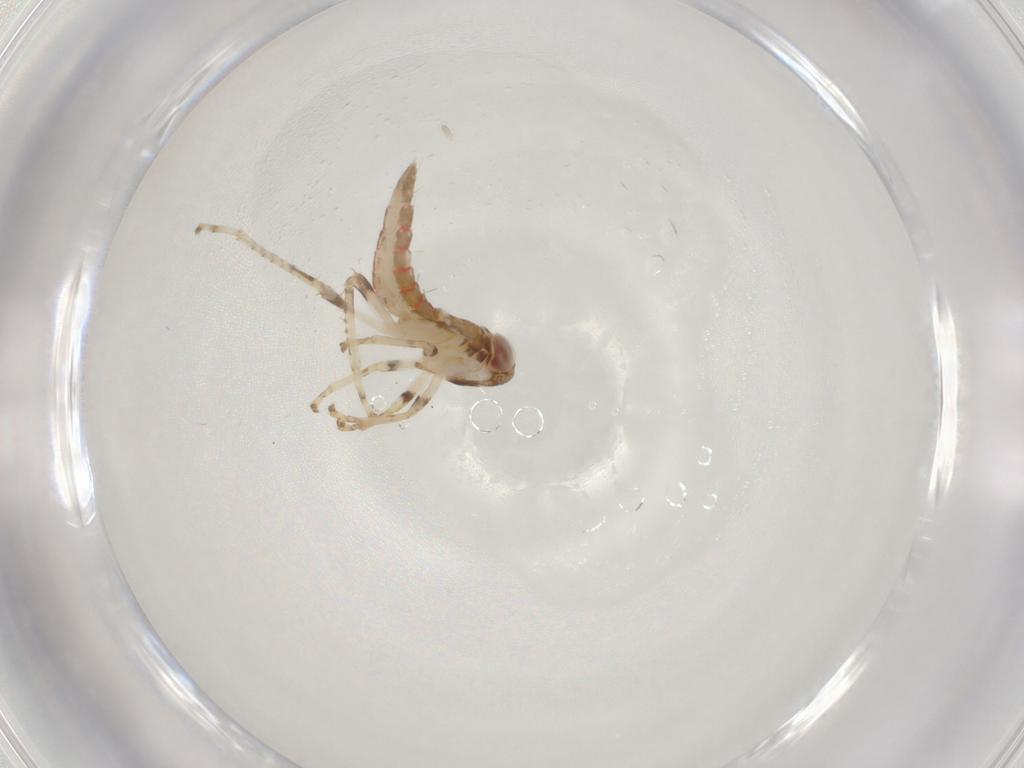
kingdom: Animalia
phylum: Arthropoda
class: Insecta
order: Hemiptera
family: Cicadellidae
